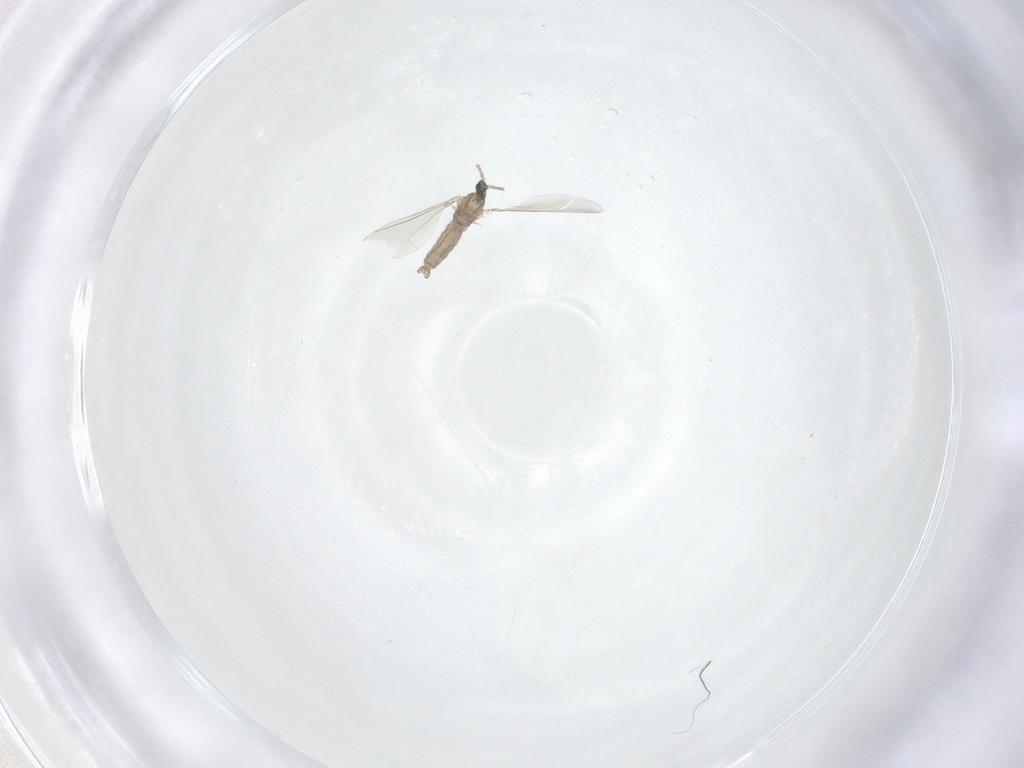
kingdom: Animalia
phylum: Arthropoda
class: Insecta
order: Diptera
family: Mycetophilidae
